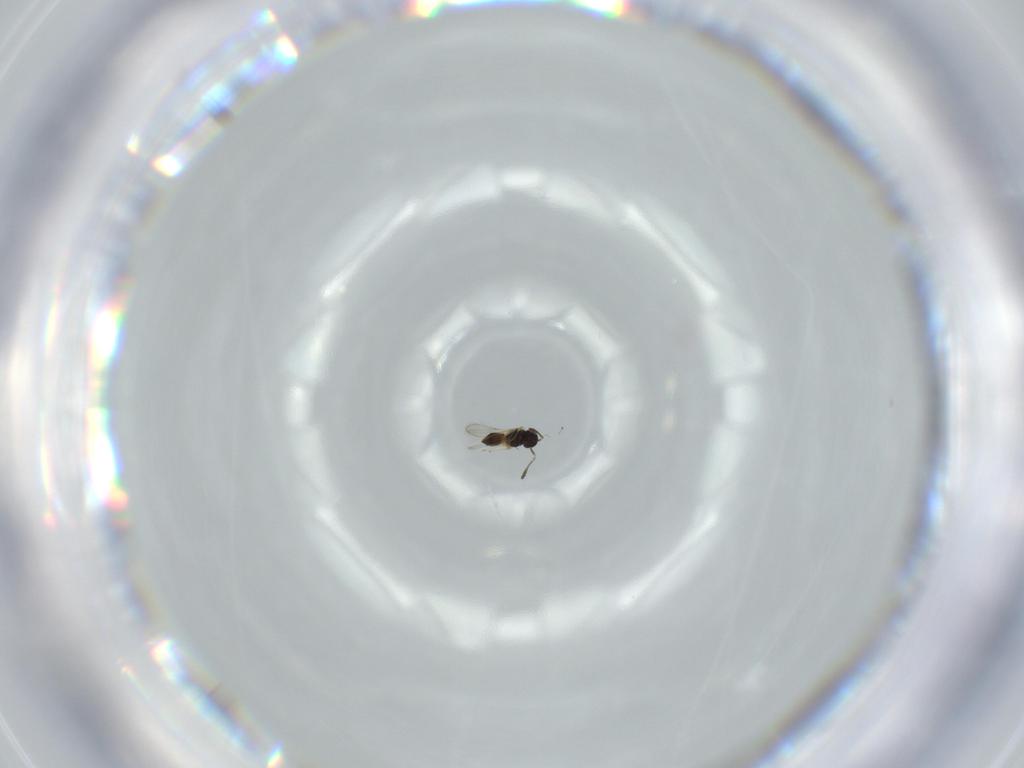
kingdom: Animalia
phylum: Arthropoda
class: Insecta
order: Hymenoptera
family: Scelionidae
